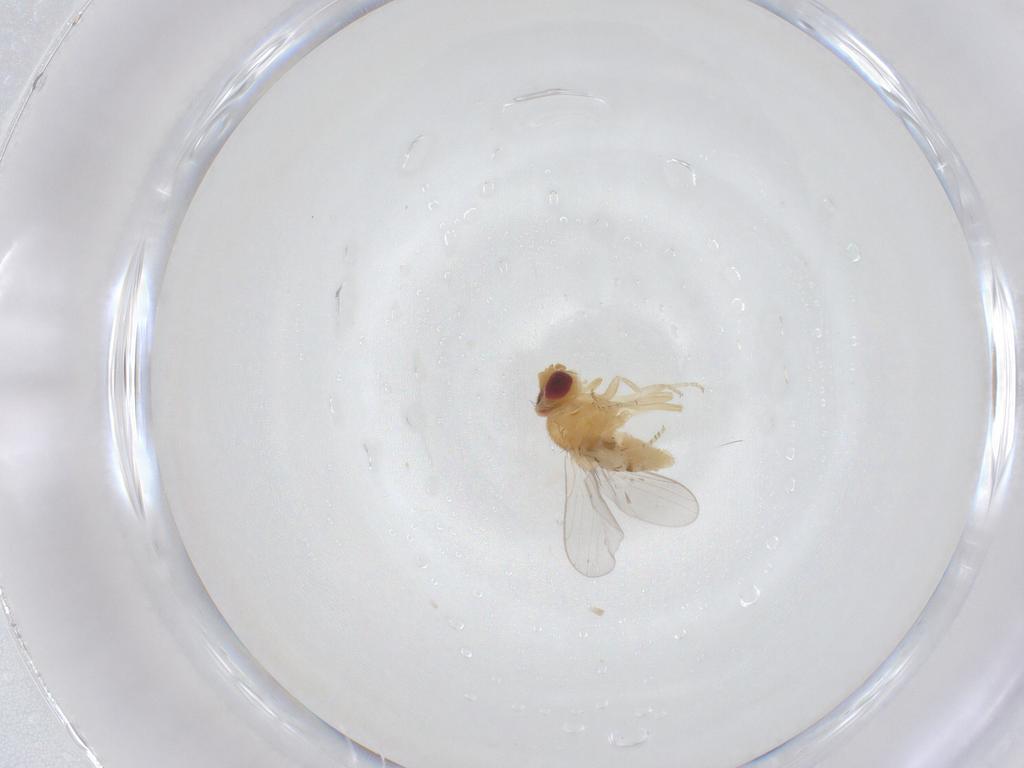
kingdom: Animalia
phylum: Arthropoda
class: Insecta
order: Diptera
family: Chloropidae
